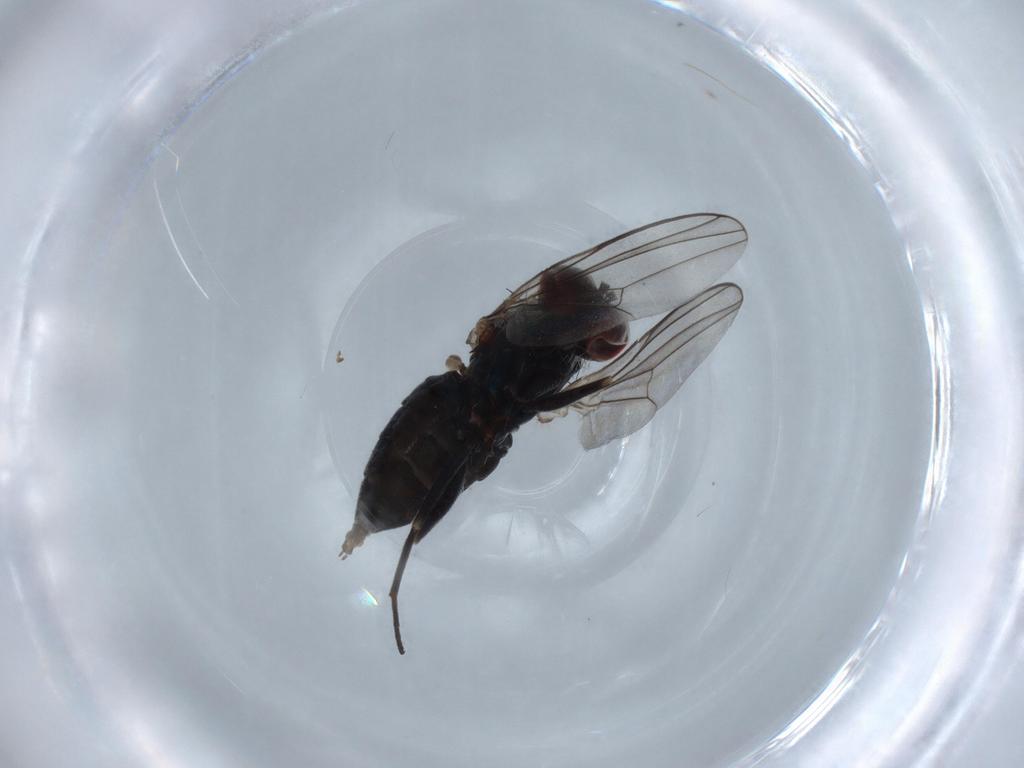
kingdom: Animalia
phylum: Arthropoda
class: Insecta
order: Diptera
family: Dolichopodidae
